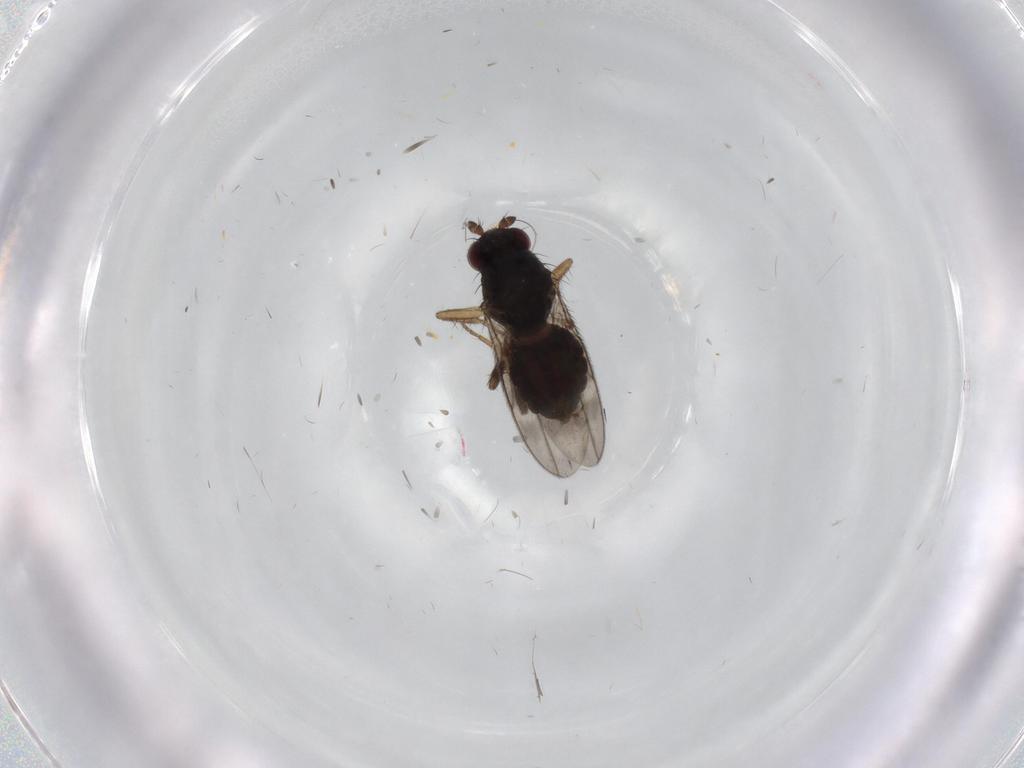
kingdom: Animalia
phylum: Arthropoda
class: Insecta
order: Diptera
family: Sphaeroceridae
